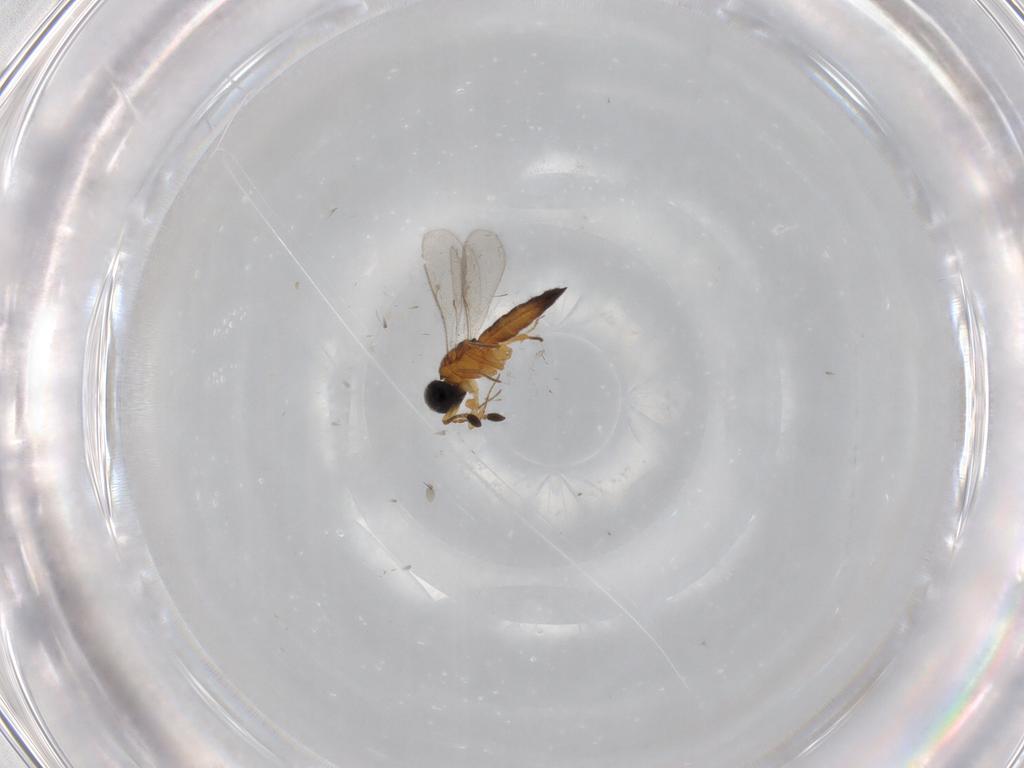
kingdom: Animalia
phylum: Arthropoda
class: Insecta
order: Hymenoptera
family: Scelionidae
